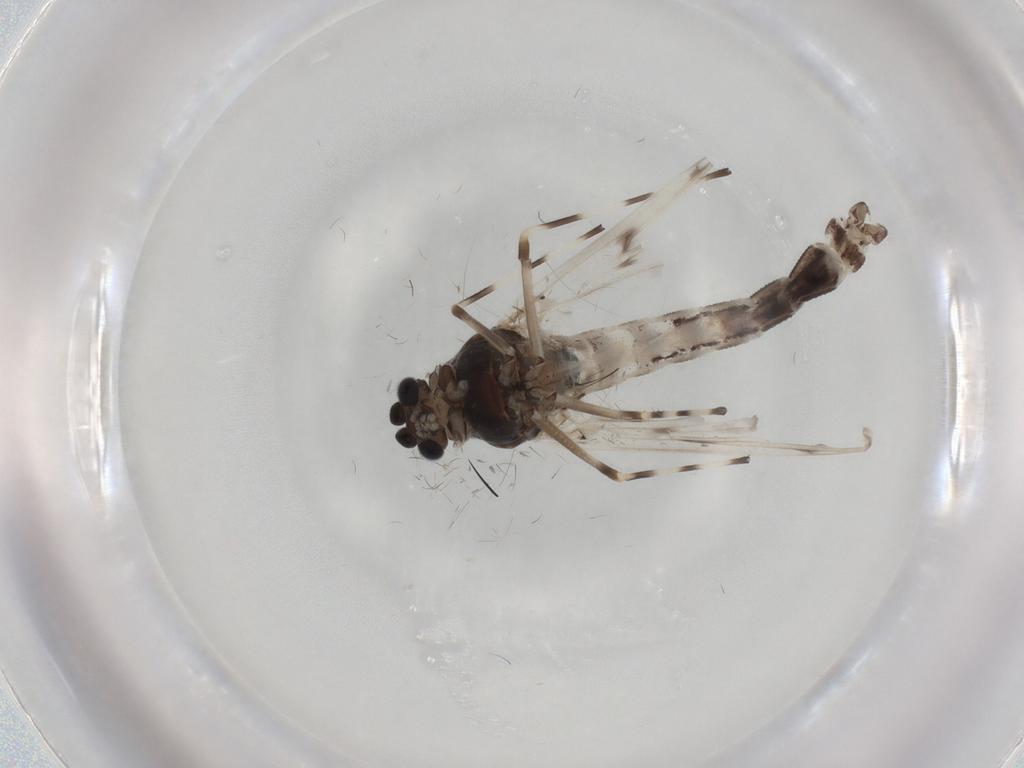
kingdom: Animalia
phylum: Arthropoda
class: Insecta
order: Diptera
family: Chironomidae
